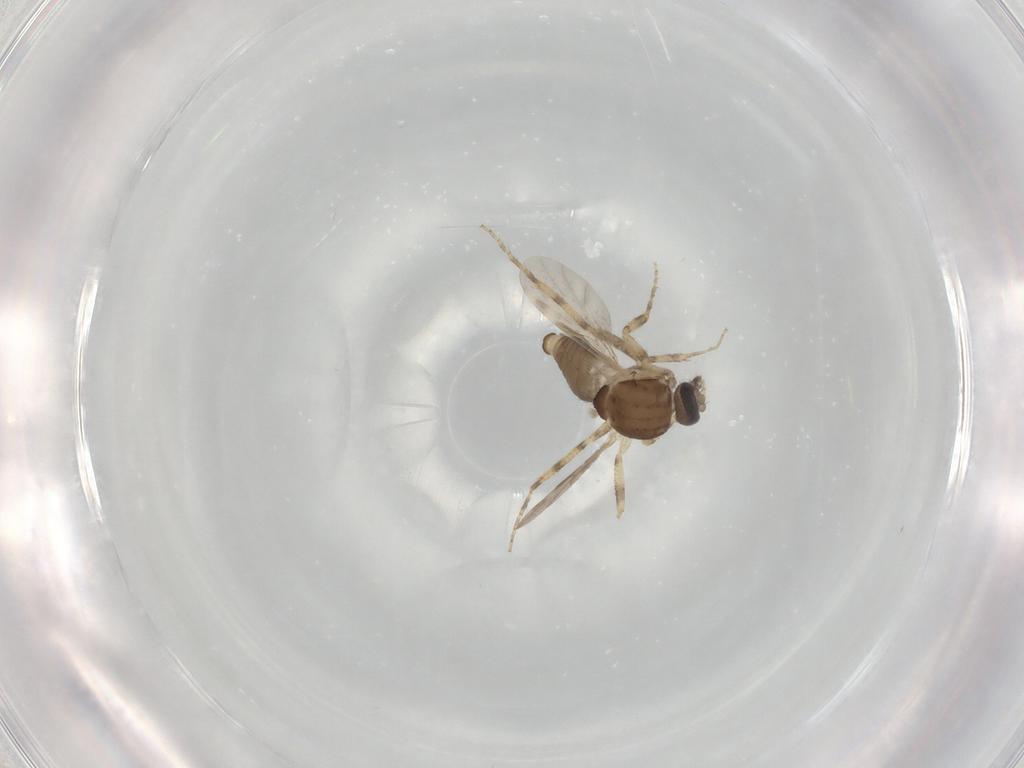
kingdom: Animalia
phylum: Arthropoda
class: Insecta
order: Diptera
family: Ceratopogonidae
